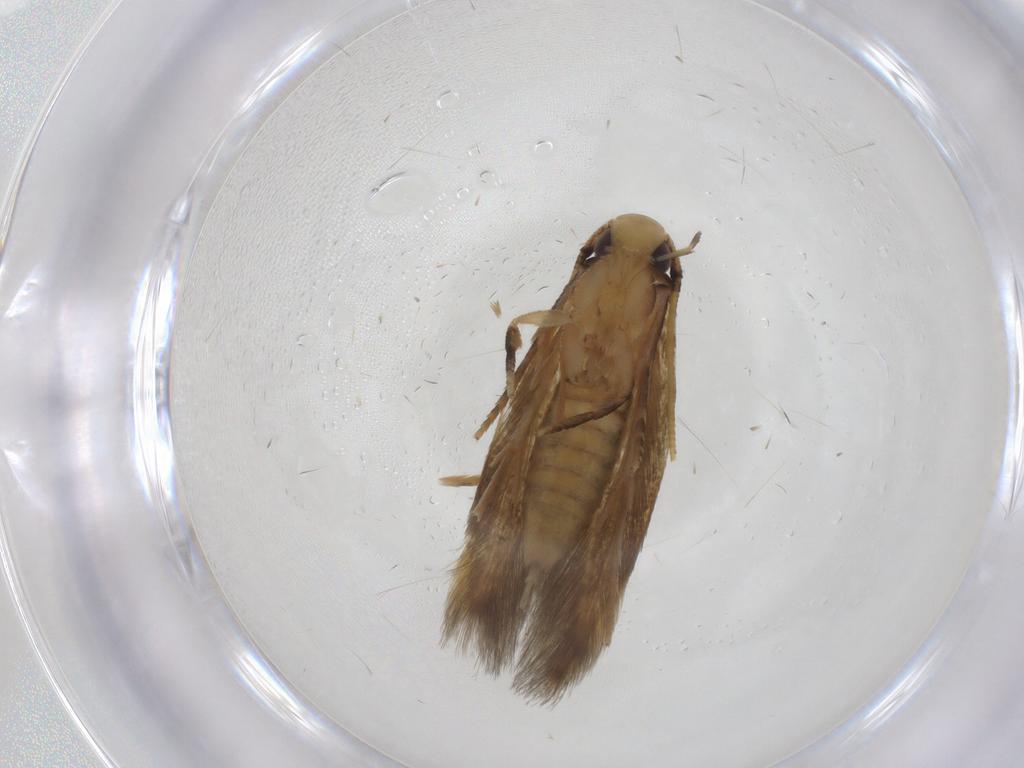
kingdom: Animalia
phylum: Arthropoda
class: Insecta
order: Lepidoptera
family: Tineidae
